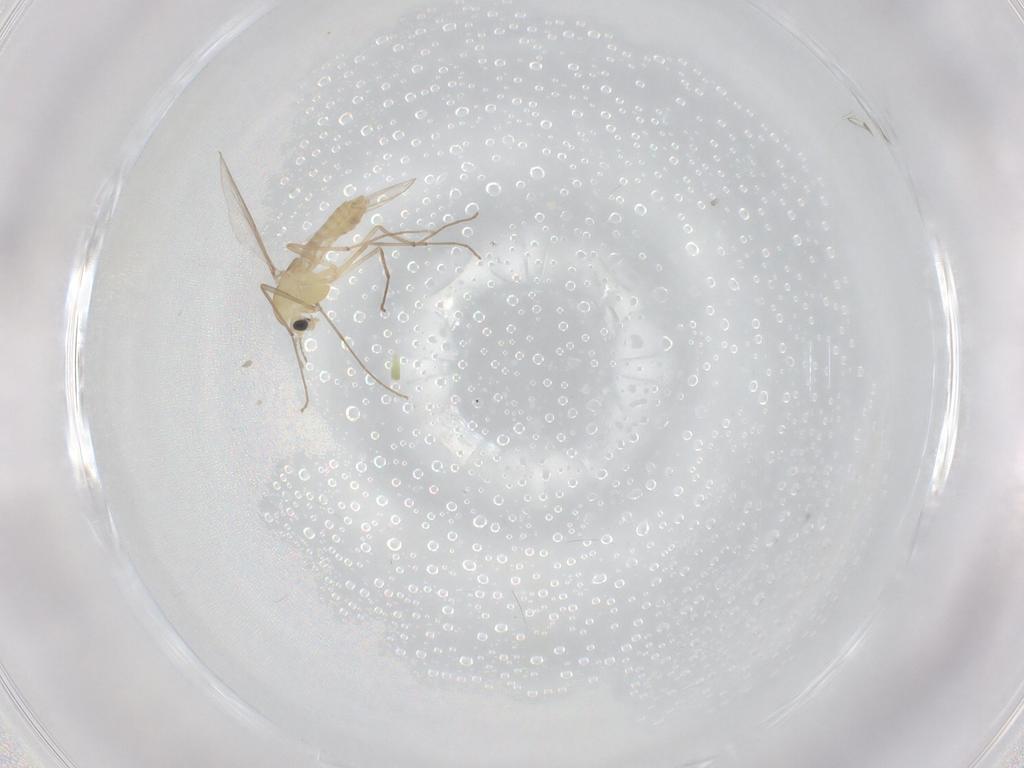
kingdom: Animalia
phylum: Arthropoda
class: Insecta
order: Diptera
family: Chironomidae
